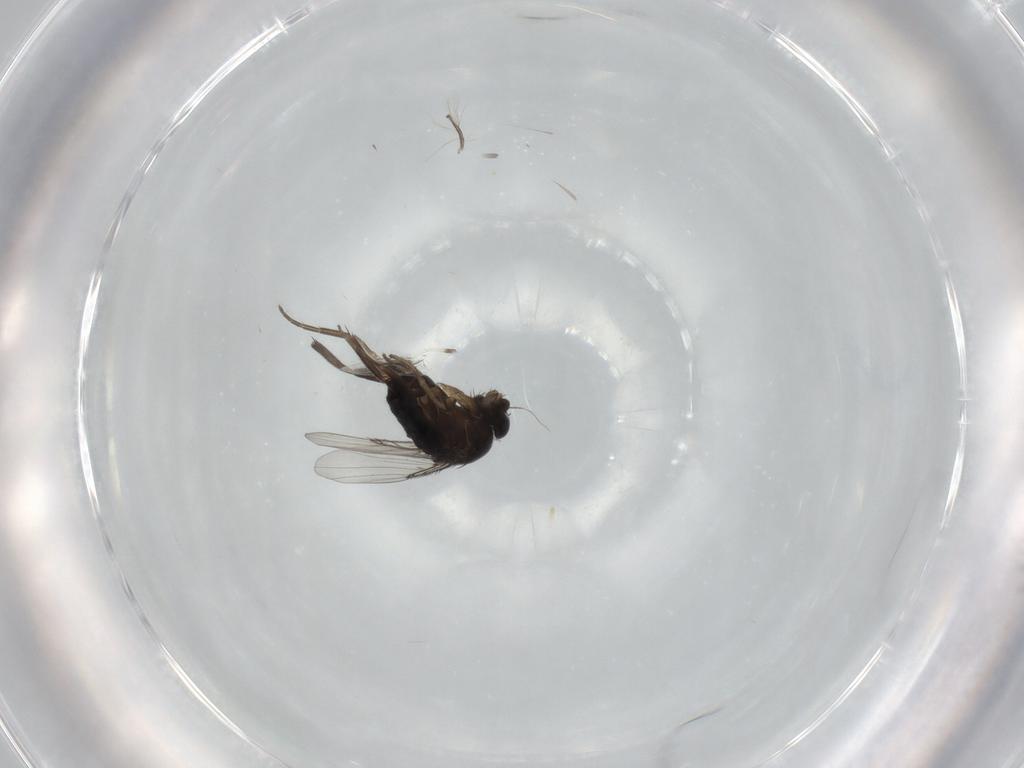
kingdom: Animalia
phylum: Arthropoda
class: Insecta
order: Diptera
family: Phoridae
